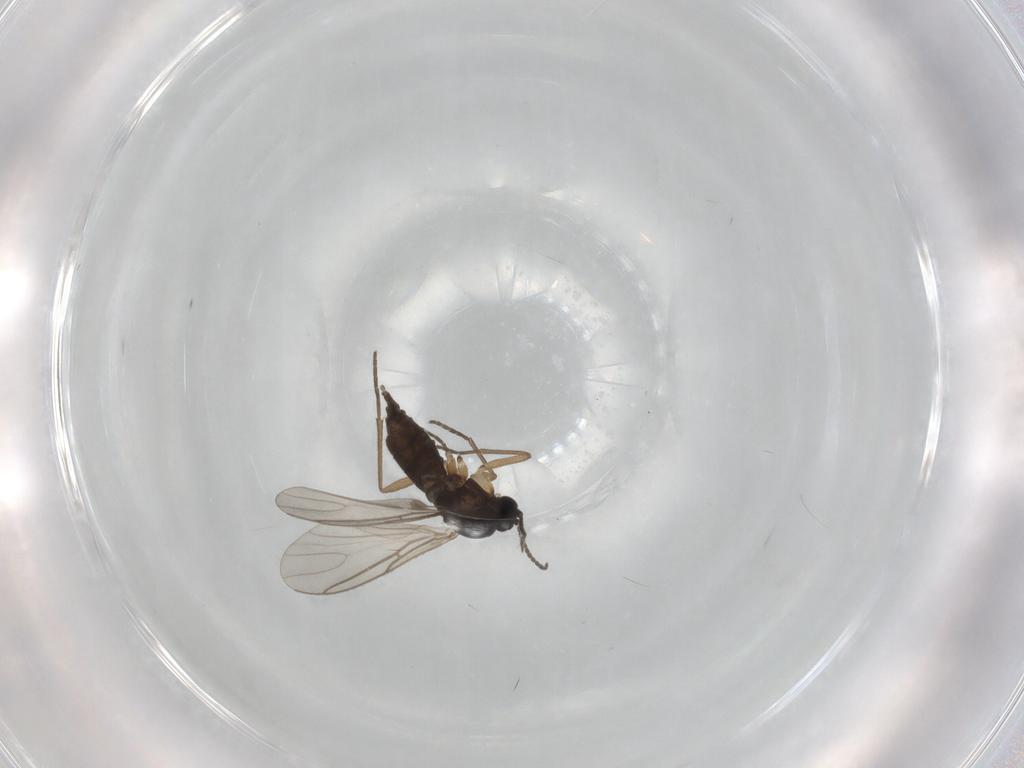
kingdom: Animalia
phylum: Arthropoda
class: Insecta
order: Diptera
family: Sciaridae
